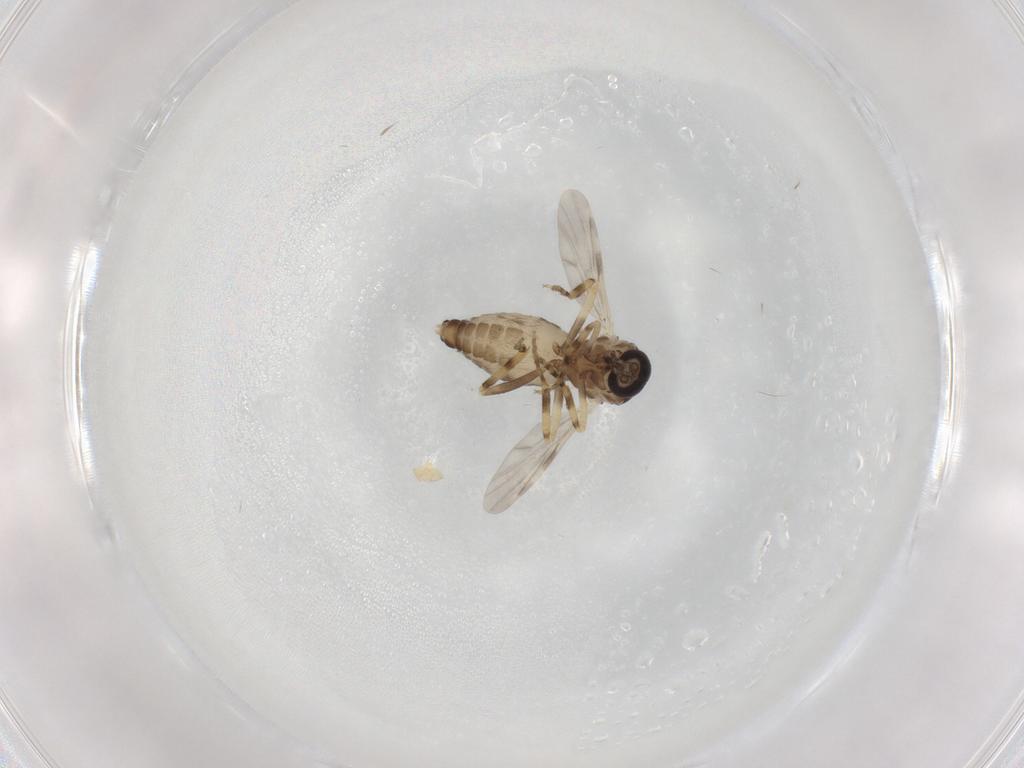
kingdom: Animalia
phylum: Arthropoda
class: Insecta
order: Diptera
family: Ceratopogonidae
